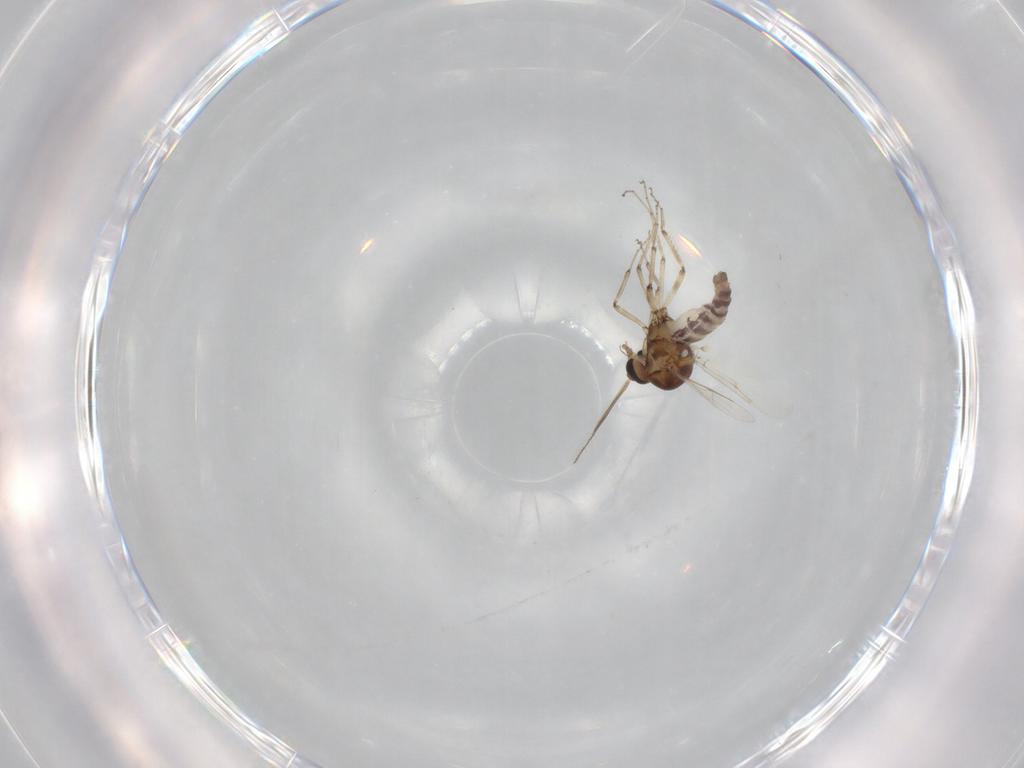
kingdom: Animalia
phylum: Arthropoda
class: Insecta
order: Diptera
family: Ceratopogonidae
